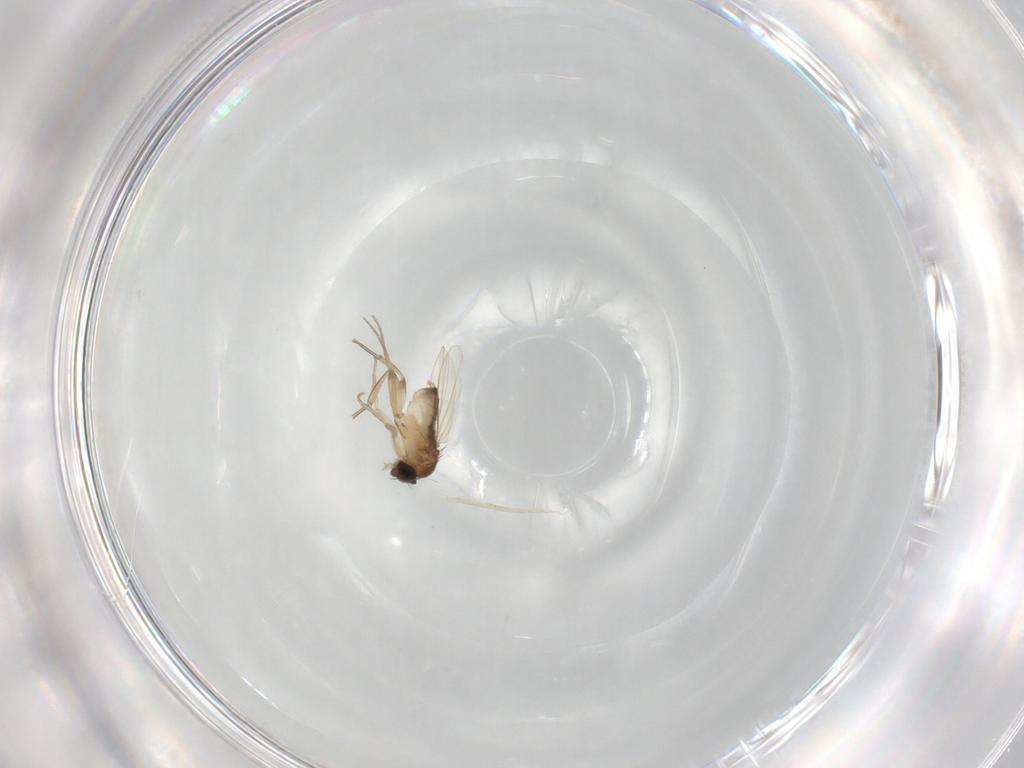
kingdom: Animalia
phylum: Arthropoda
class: Insecta
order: Diptera
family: Phoridae
